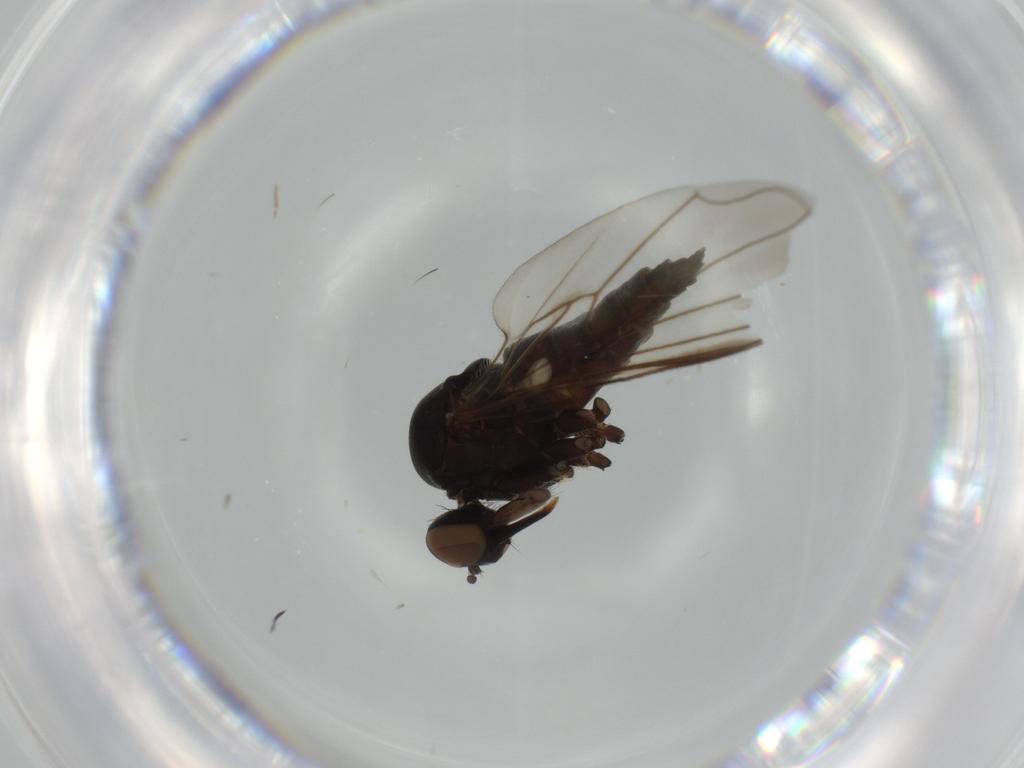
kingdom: Animalia
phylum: Arthropoda
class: Insecta
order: Diptera
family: Empididae
